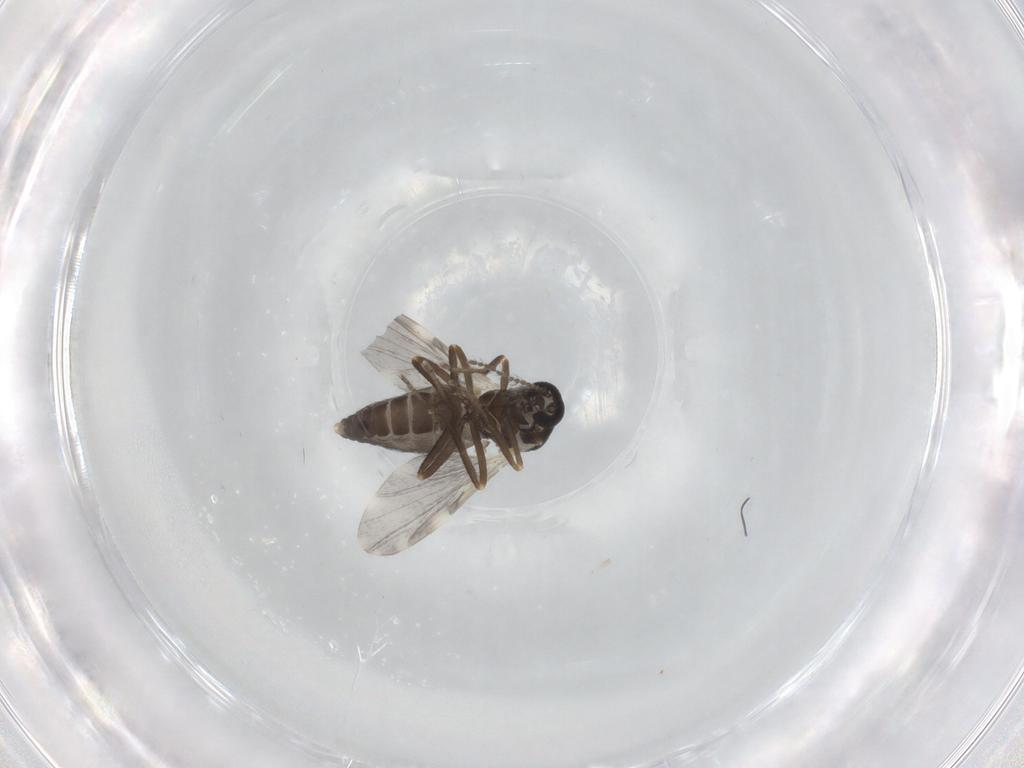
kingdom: Animalia
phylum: Arthropoda
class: Insecta
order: Diptera
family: Ceratopogonidae
